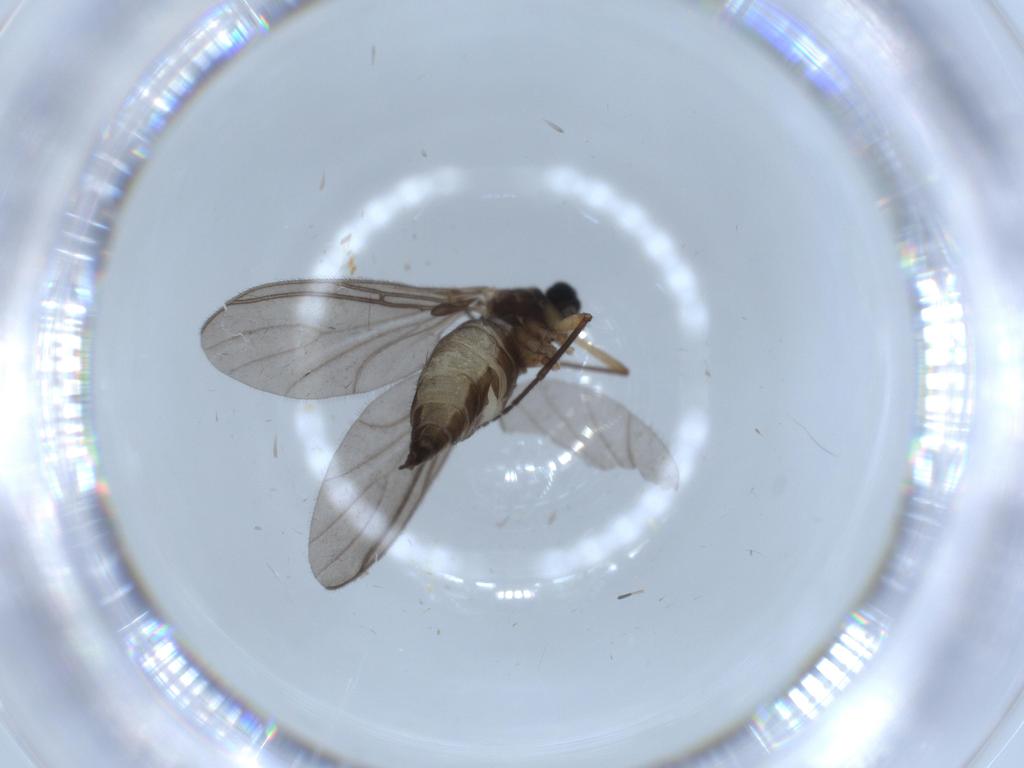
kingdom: Animalia
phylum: Arthropoda
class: Insecta
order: Diptera
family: Sciaridae
